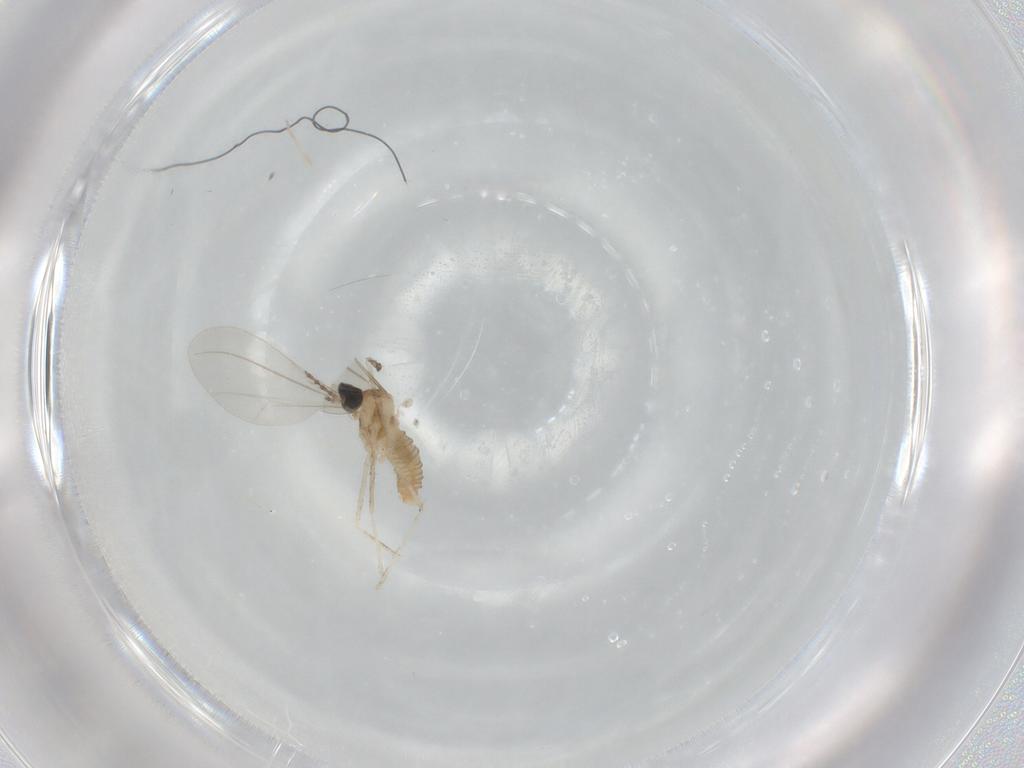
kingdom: Animalia
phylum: Arthropoda
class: Insecta
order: Diptera
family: Cecidomyiidae
